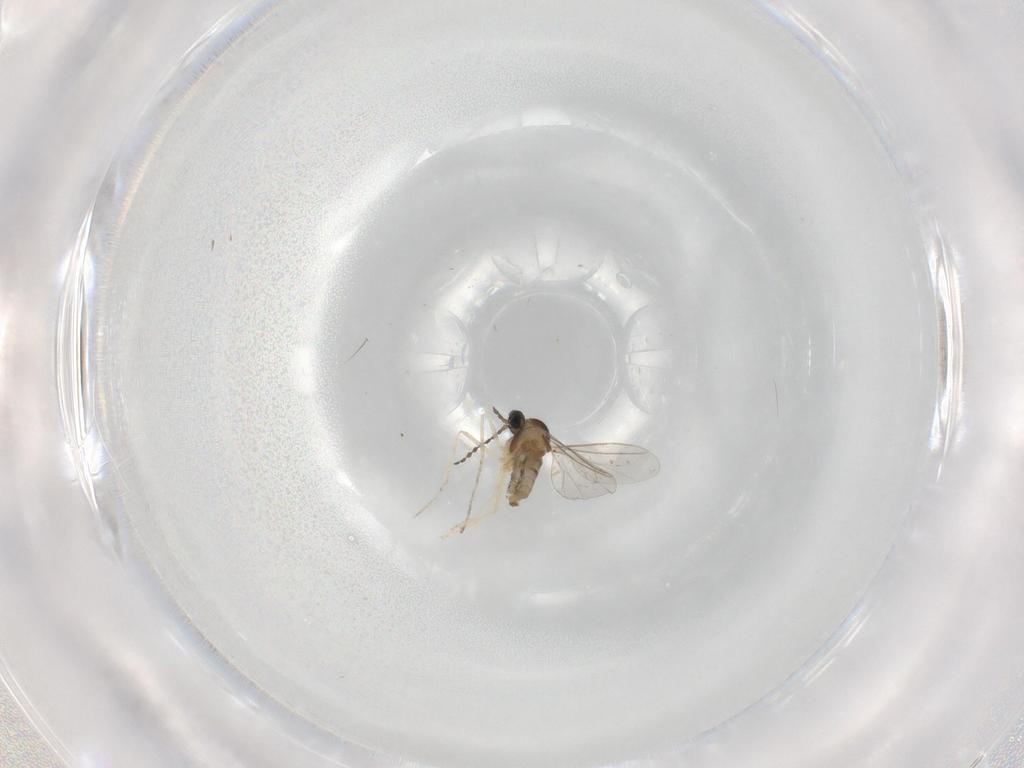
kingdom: Animalia
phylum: Arthropoda
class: Insecta
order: Diptera
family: Cecidomyiidae
